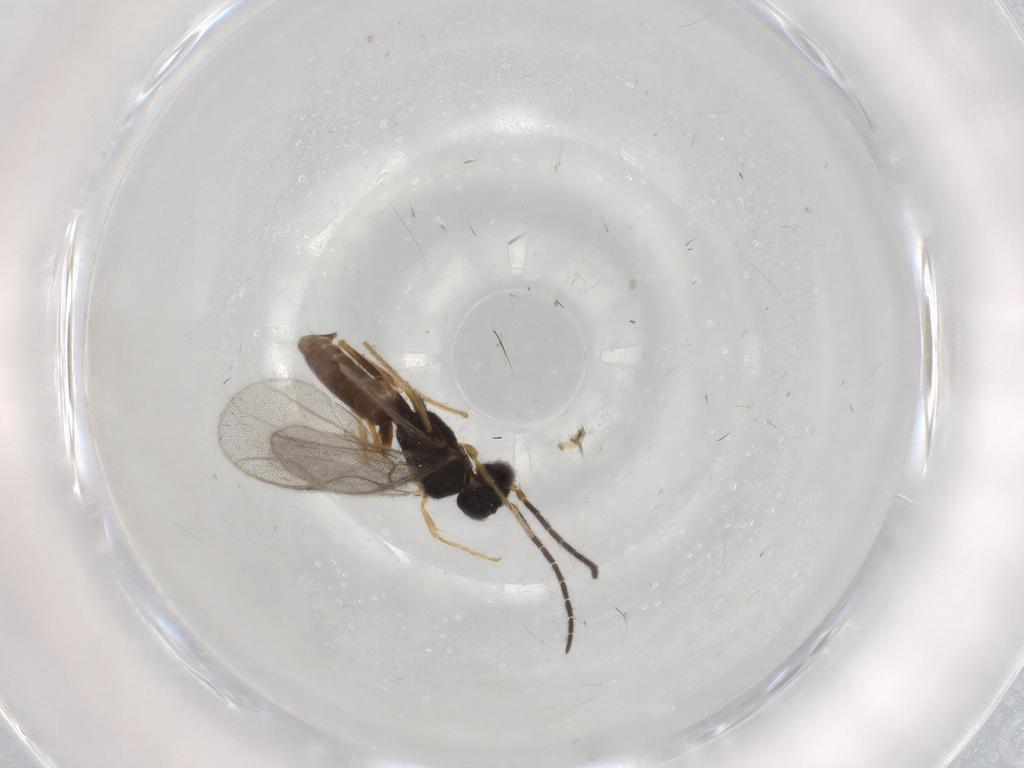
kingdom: Animalia
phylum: Arthropoda
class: Insecta
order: Hymenoptera
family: Dryinidae
